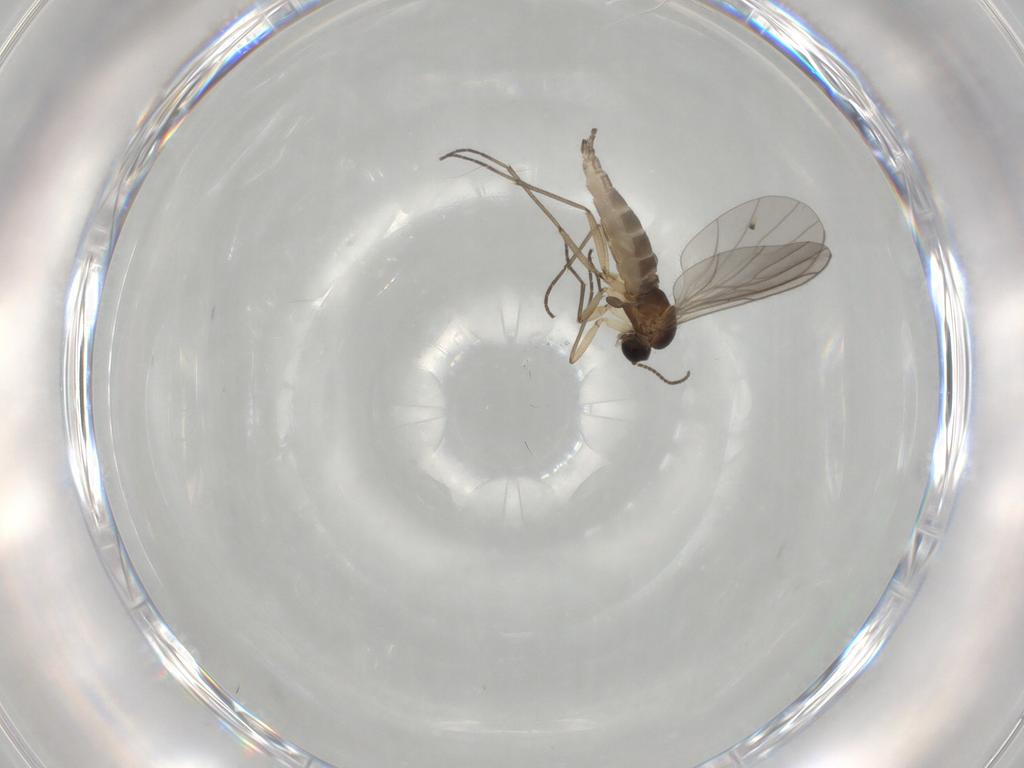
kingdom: Animalia
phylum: Arthropoda
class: Insecta
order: Diptera
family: Sciaridae
